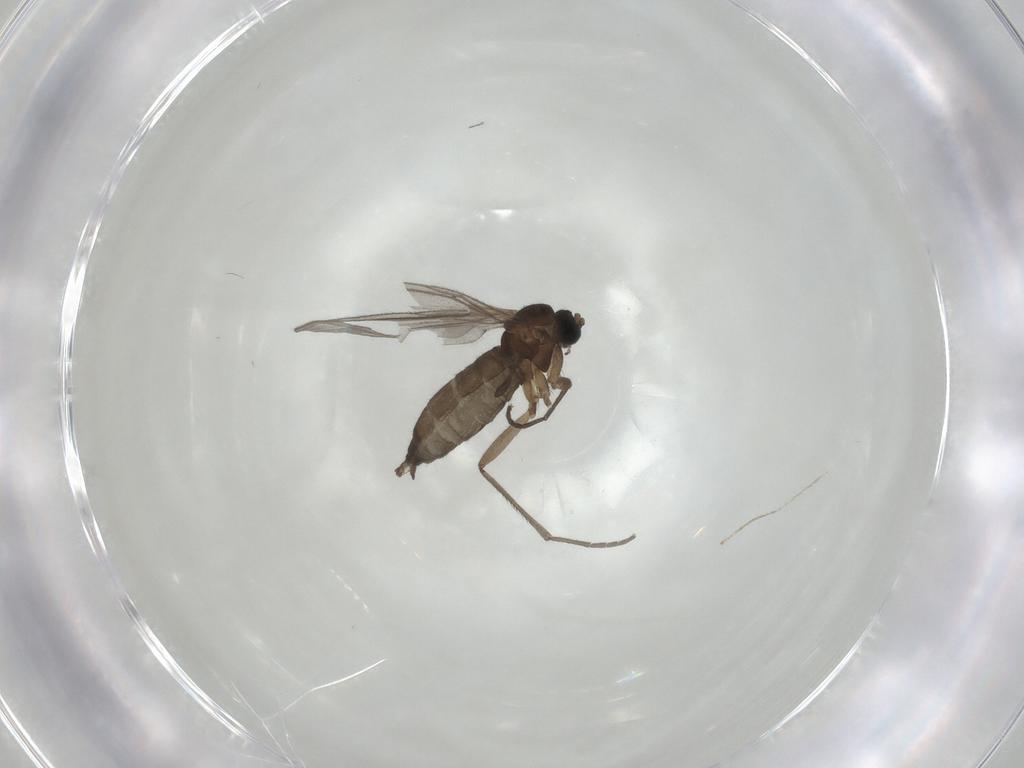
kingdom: Animalia
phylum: Arthropoda
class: Insecta
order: Diptera
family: Sciaridae
